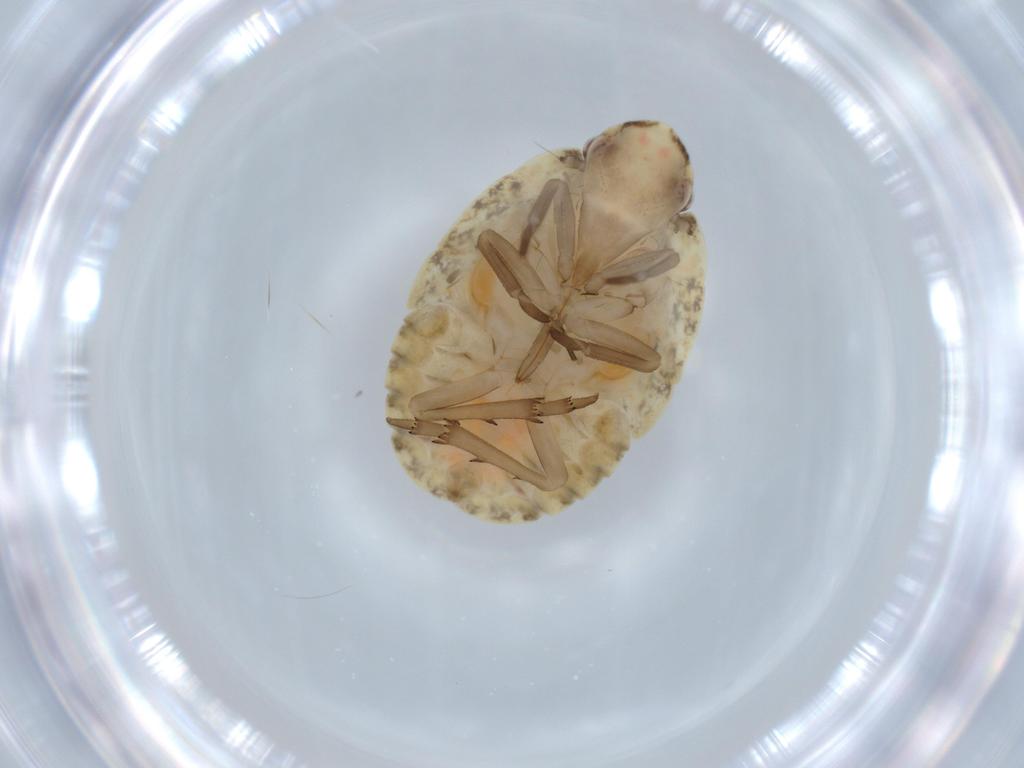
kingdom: Animalia
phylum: Arthropoda
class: Insecta
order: Hemiptera
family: Flatidae
